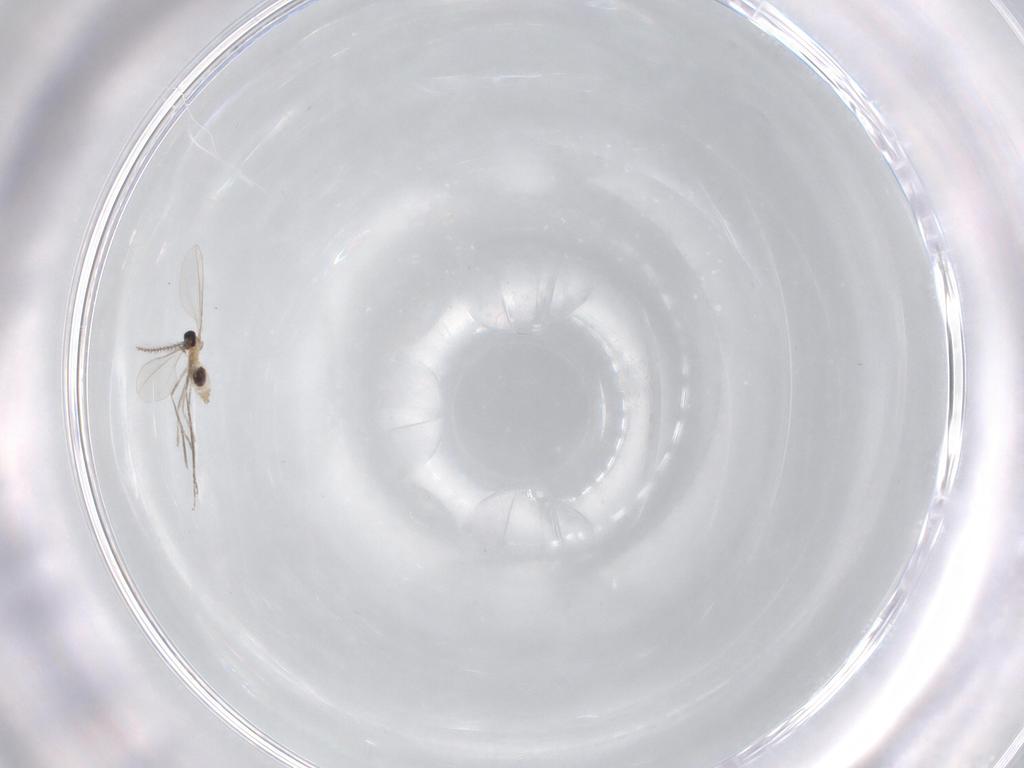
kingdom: Animalia
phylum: Arthropoda
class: Insecta
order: Diptera
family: Cecidomyiidae
